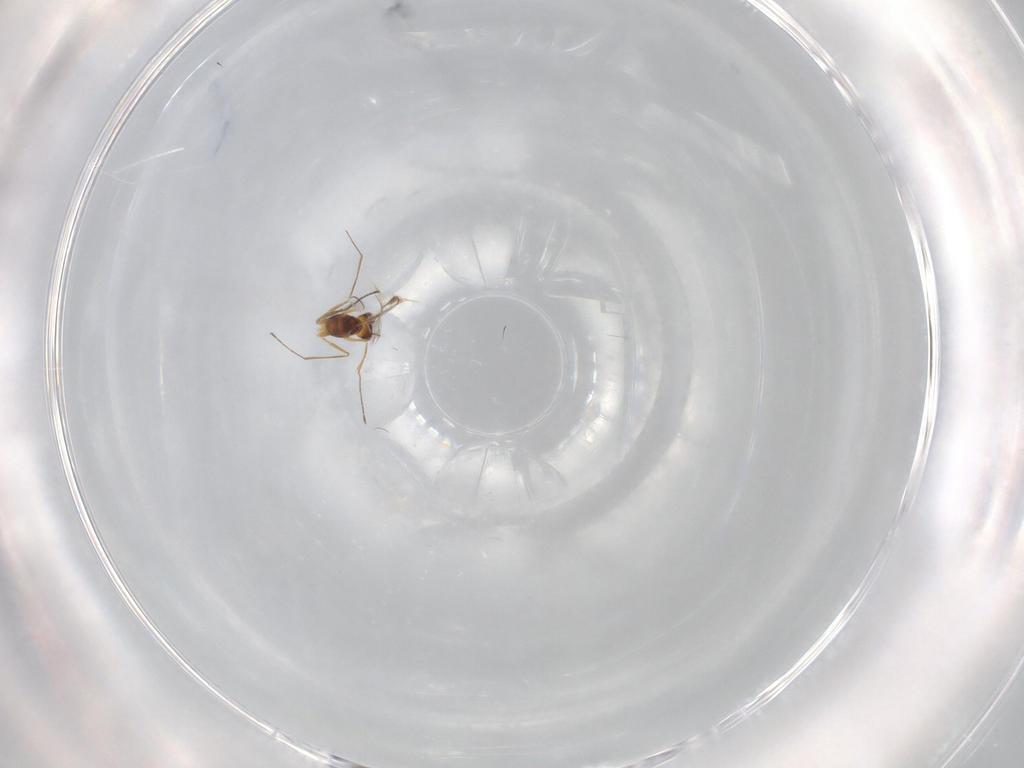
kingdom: Animalia
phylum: Arthropoda
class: Insecta
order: Hymenoptera
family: Mymaridae
